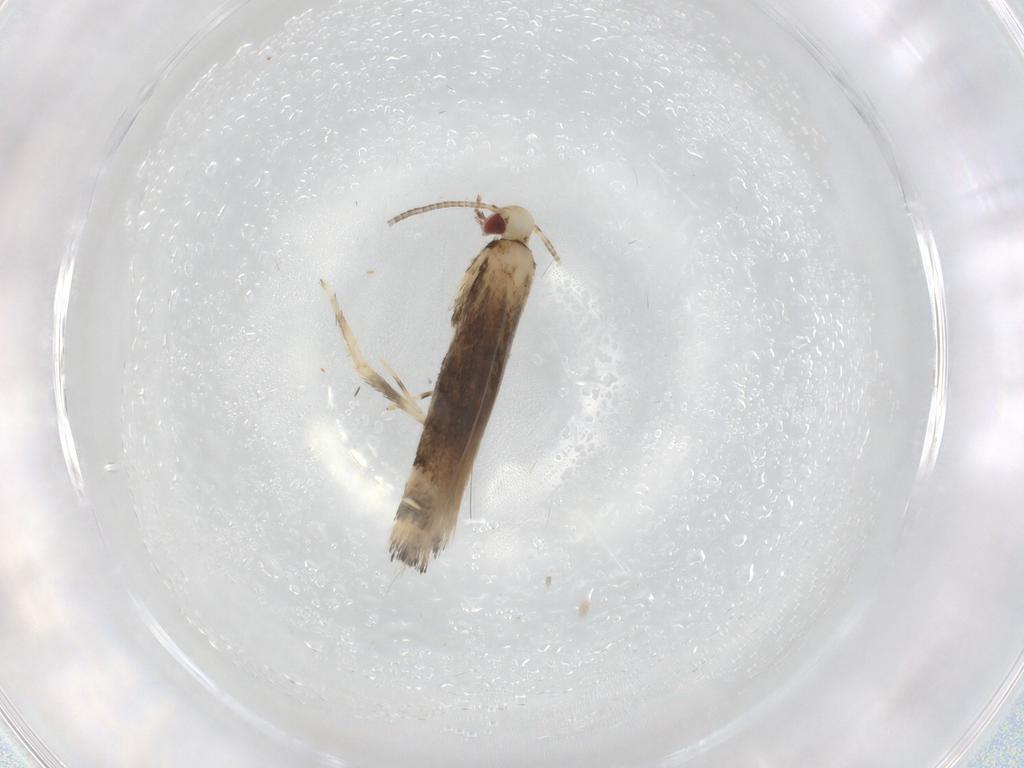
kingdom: Animalia
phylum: Arthropoda
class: Insecta
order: Lepidoptera
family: Gracillariidae
